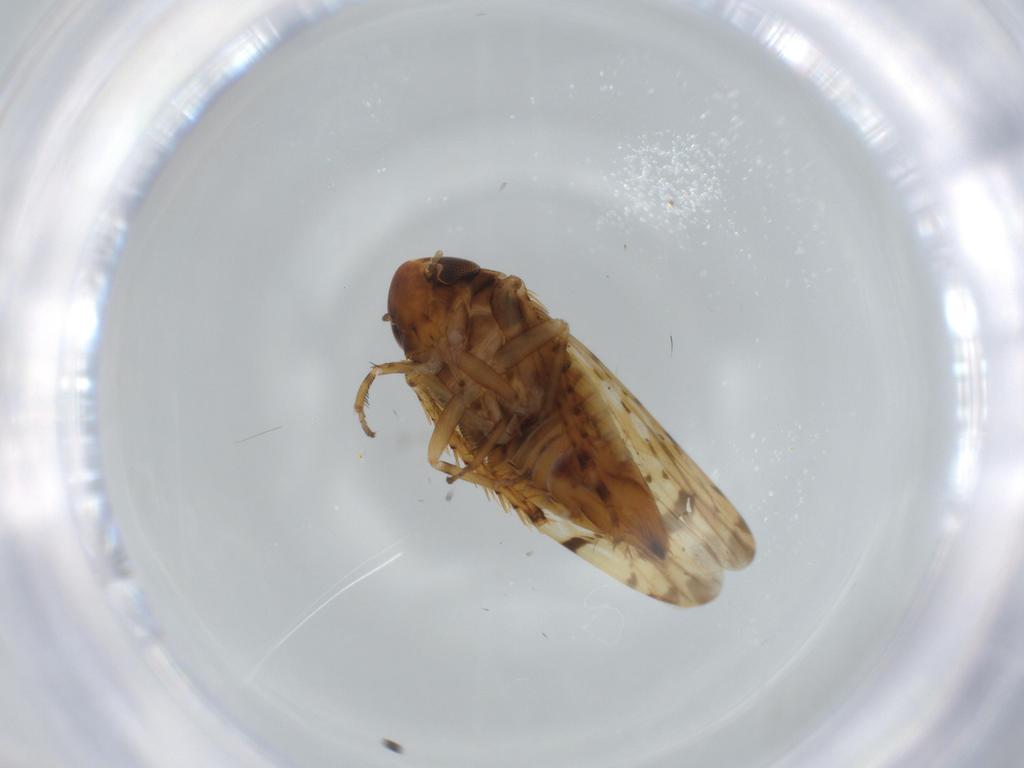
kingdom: Animalia
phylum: Arthropoda
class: Insecta
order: Hemiptera
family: Cicadellidae
